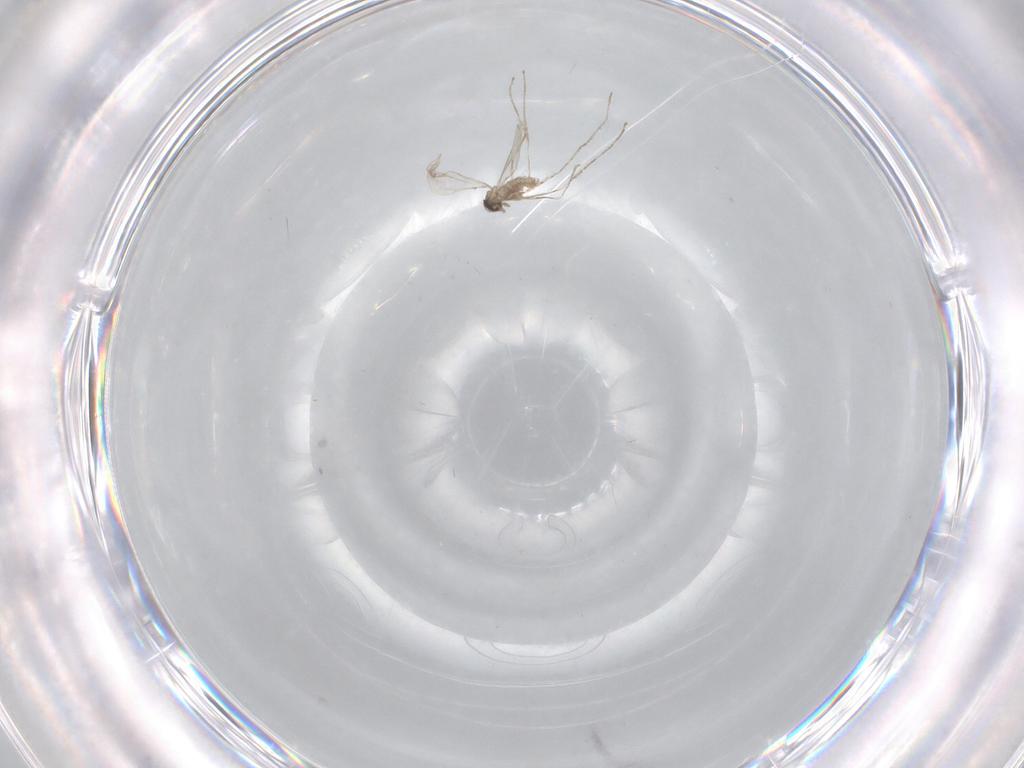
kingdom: Animalia
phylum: Arthropoda
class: Insecta
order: Diptera
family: Cecidomyiidae
